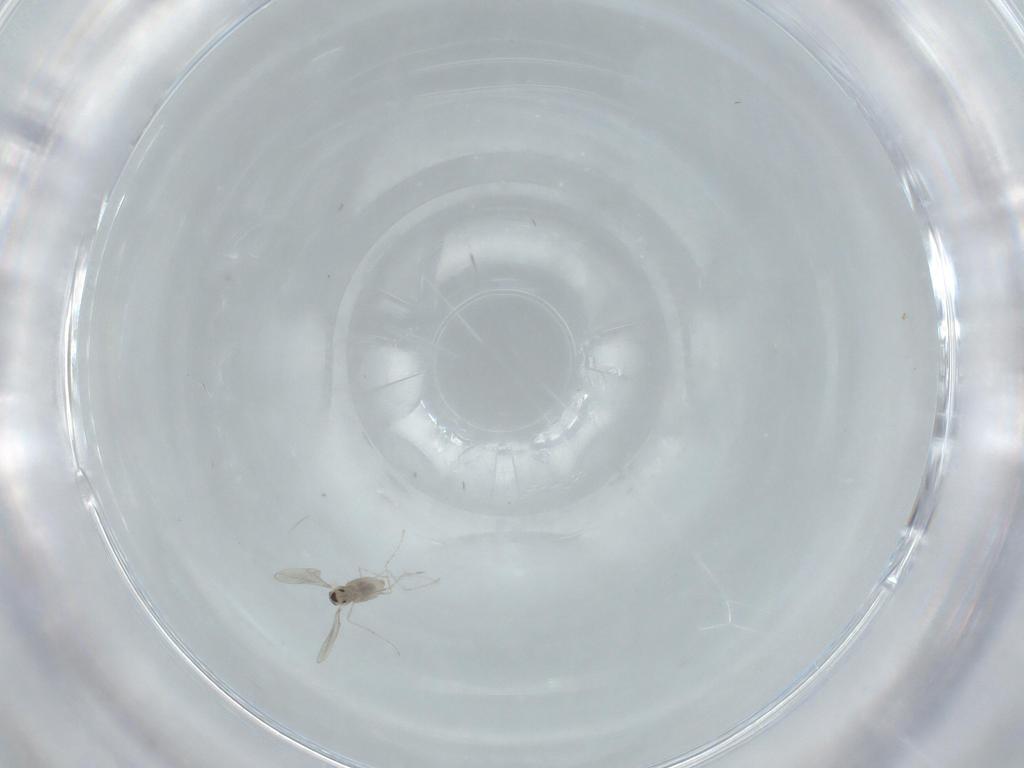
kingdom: Animalia
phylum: Arthropoda
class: Insecta
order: Diptera
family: Cecidomyiidae
